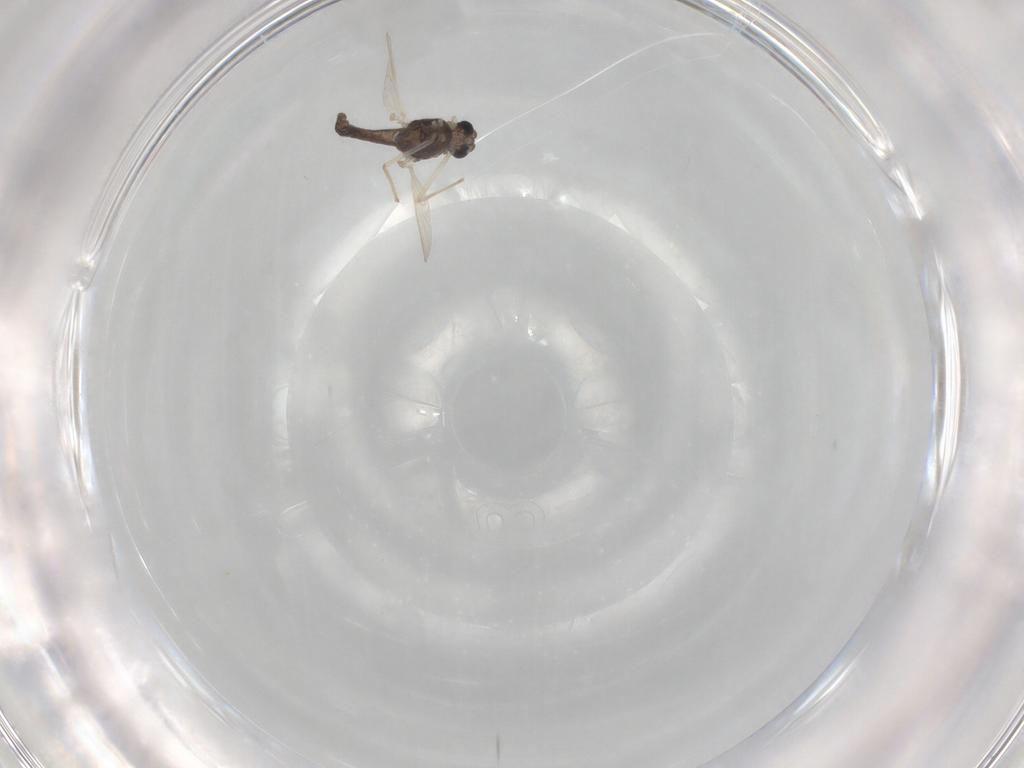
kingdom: Animalia
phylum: Arthropoda
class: Insecta
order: Diptera
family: Chironomidae
